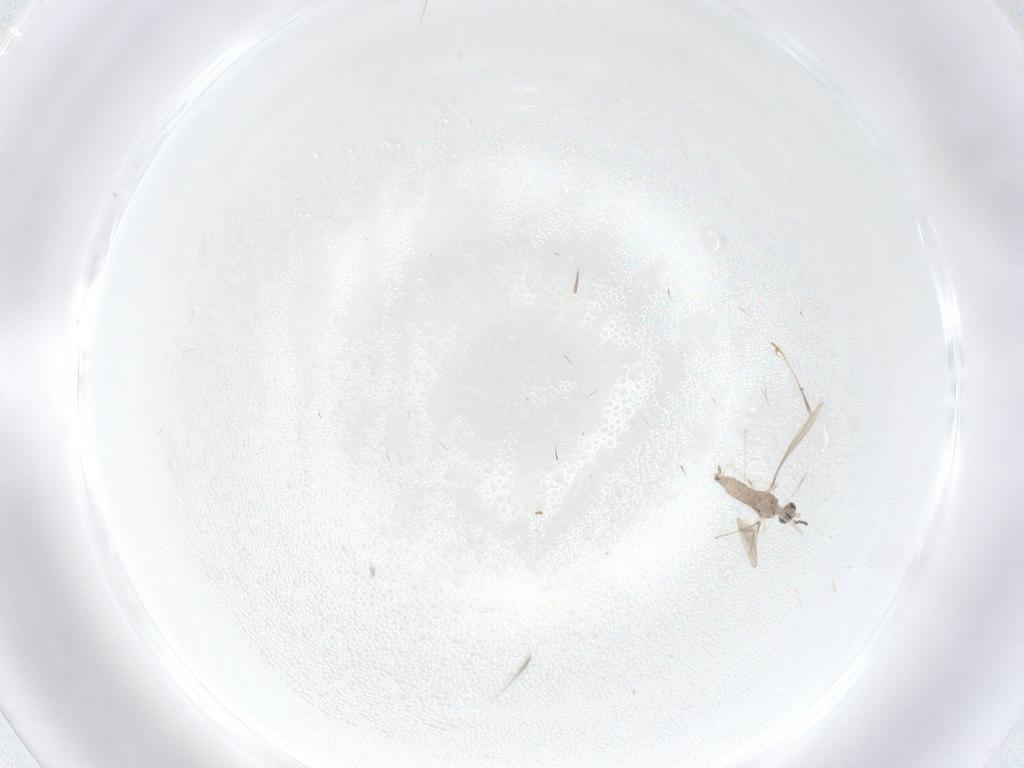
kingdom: Animalia
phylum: Arthropoda
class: Insecta
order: Diptera
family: Cecidomyiidae
